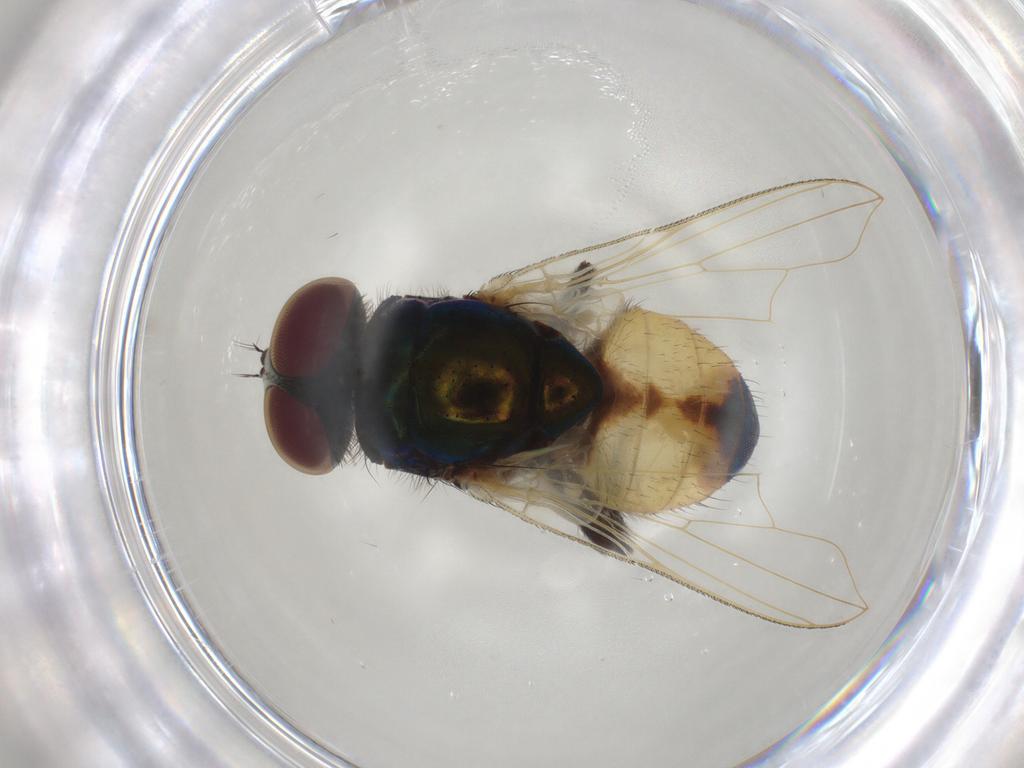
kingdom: Animalia
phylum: Arthropoda
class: Insecta
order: Diptera
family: Muscidae
